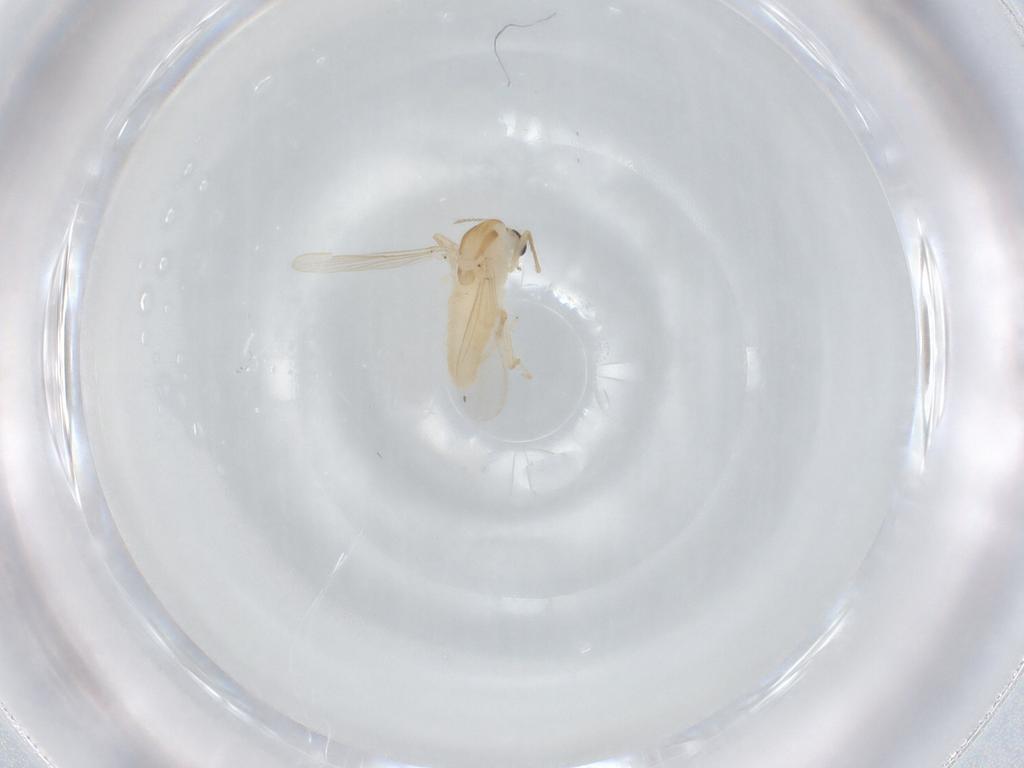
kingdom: Animalia
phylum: Arthropoda
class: Insecta
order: Diptera
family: Chironomidae
